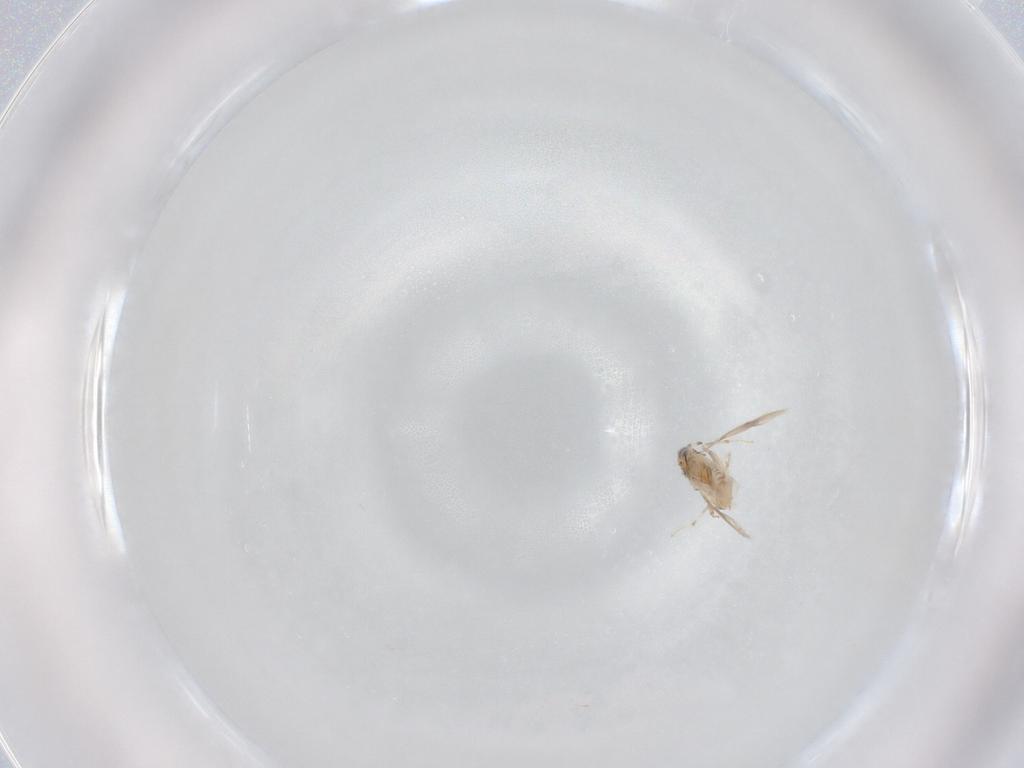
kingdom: Animalia
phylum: Arthropoda
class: Insecta
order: Hymenoptera
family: Aphelinidae
